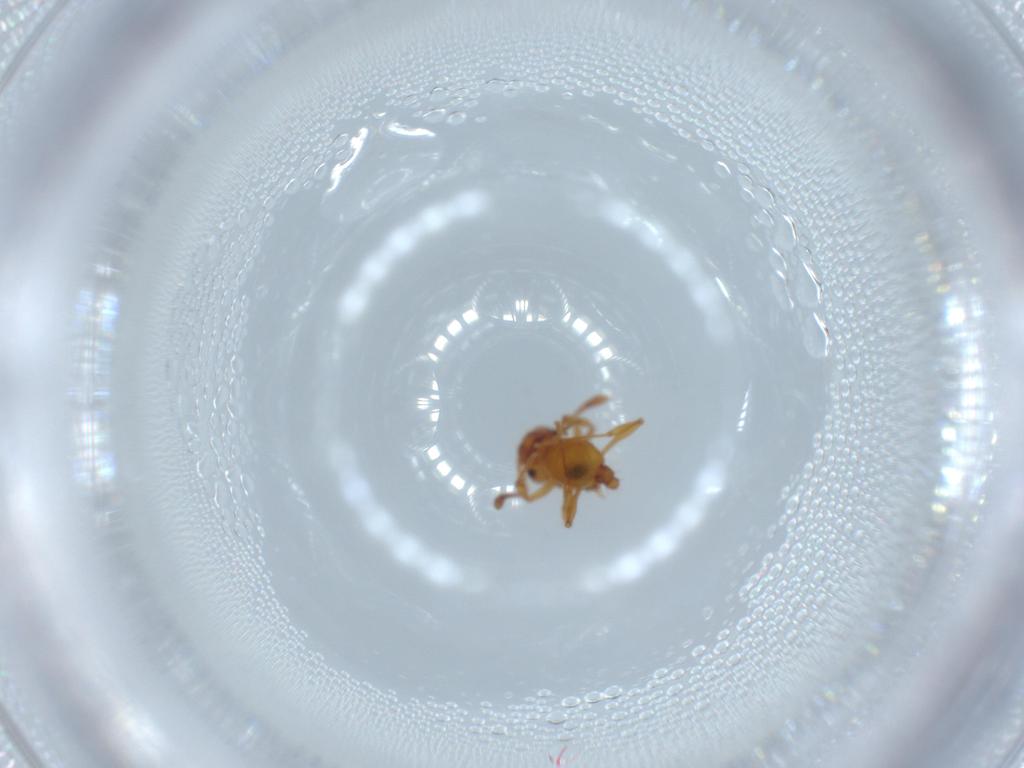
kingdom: Animalia
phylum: Arthropoda
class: Insecta
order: Hymenoptera
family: Formicidae
